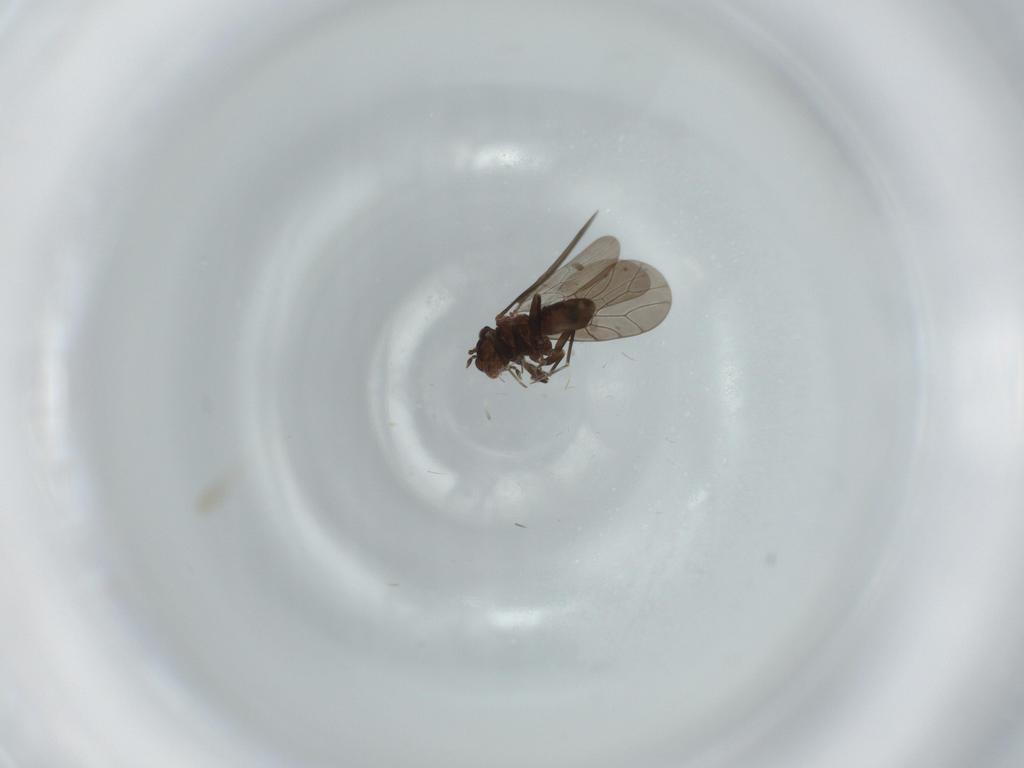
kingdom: Animalia
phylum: Arthropoda
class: Insecta
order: Psocodea
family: Lepidopsocidae
